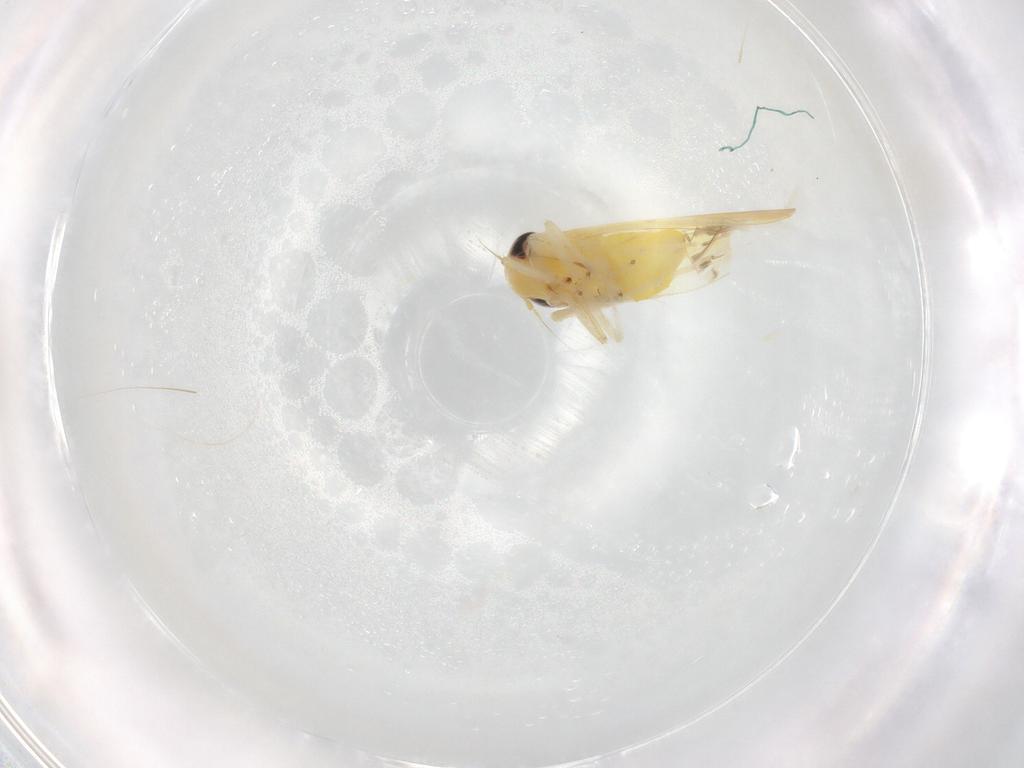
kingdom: Animalia
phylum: Arthropoda
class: Insecta
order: Hemiptera
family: Cicadellidae
